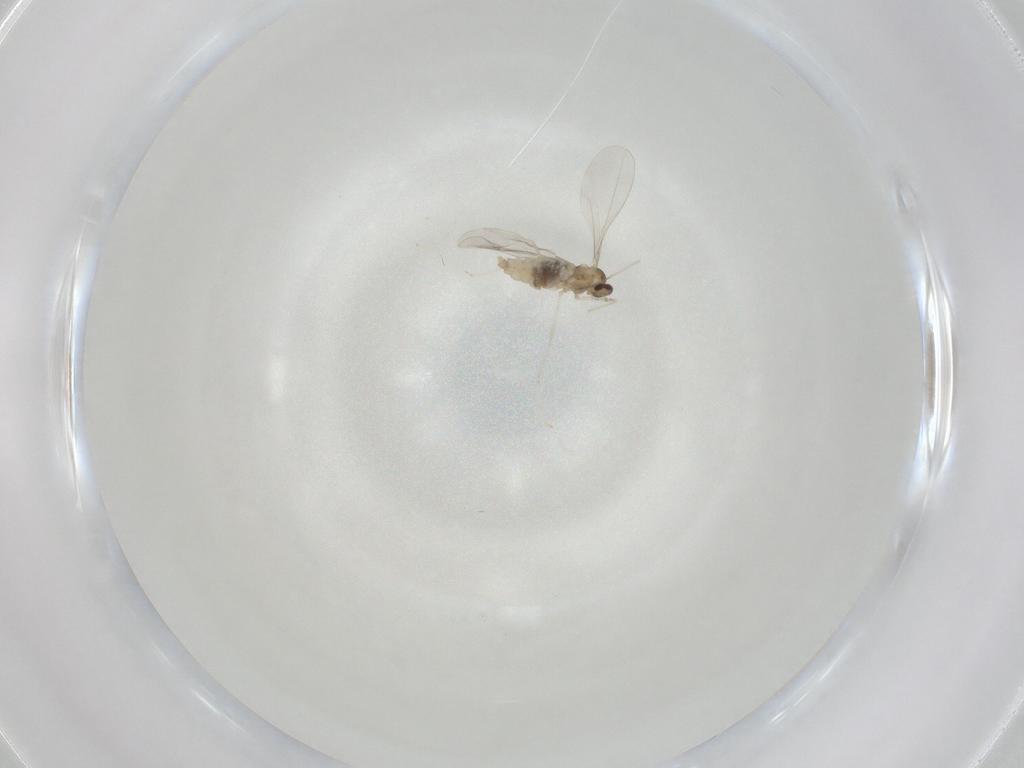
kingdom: Animalia
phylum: Arthropoda
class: Insecta
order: Diptera
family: Cecidomyiidae
